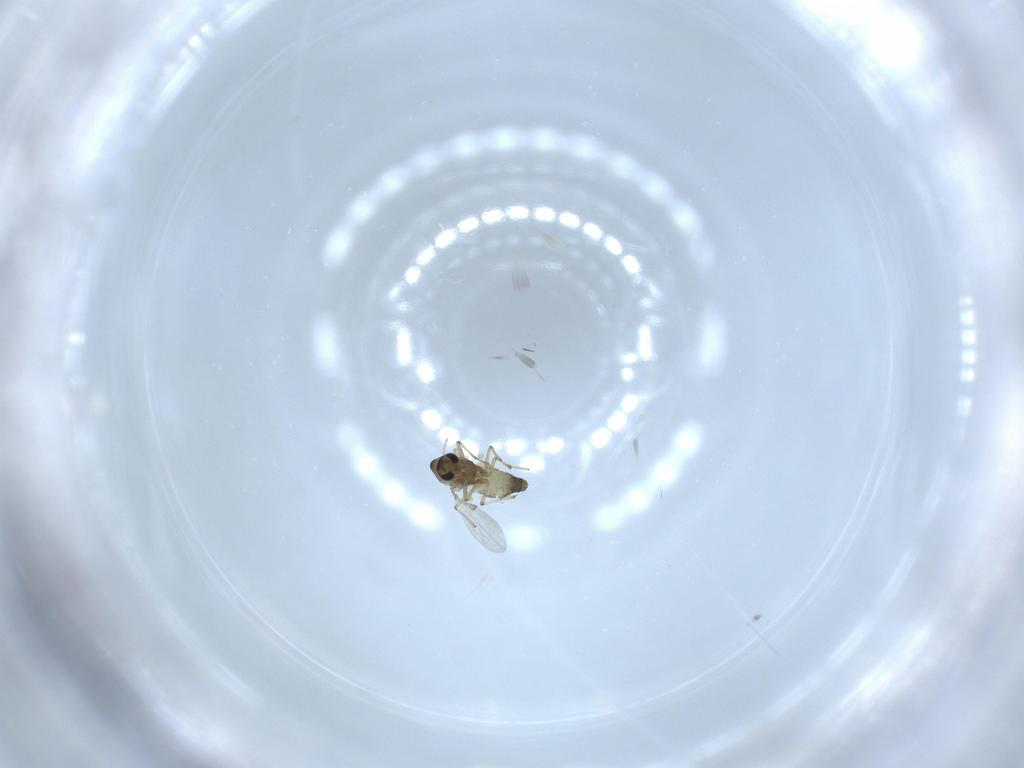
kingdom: Animalia
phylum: Arthropoda
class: Insecta
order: Diptera
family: Chironomidae
